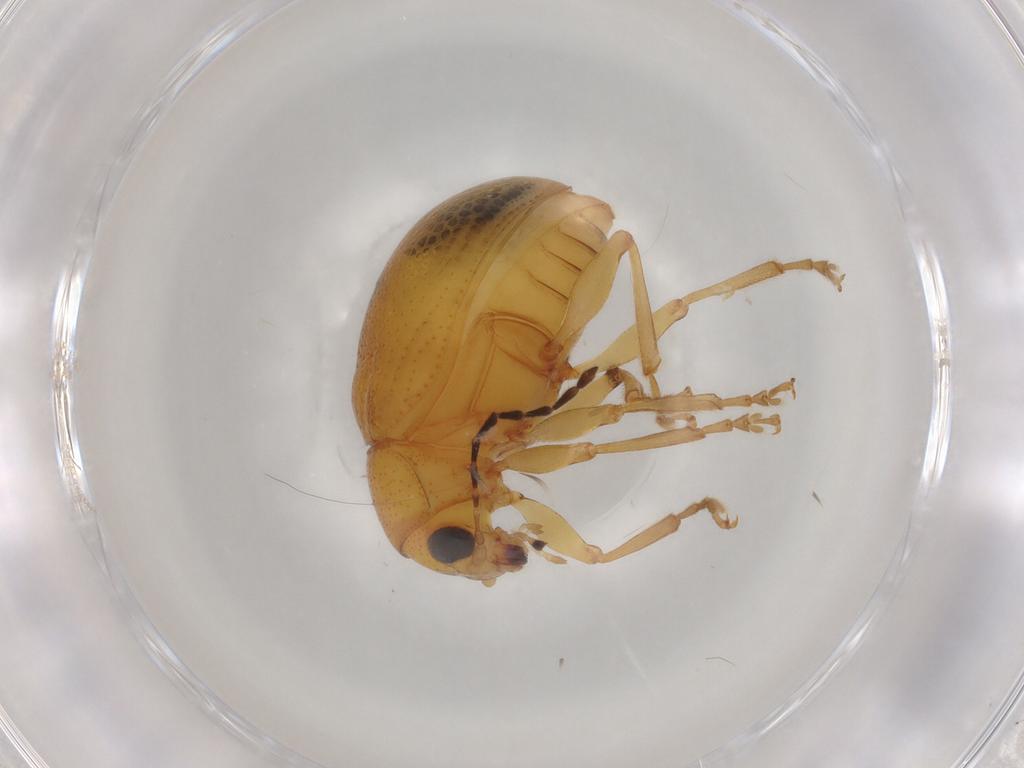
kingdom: Animalia
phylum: Arthropoda
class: Insecta
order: Coleoptera
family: Chrysomelidae
